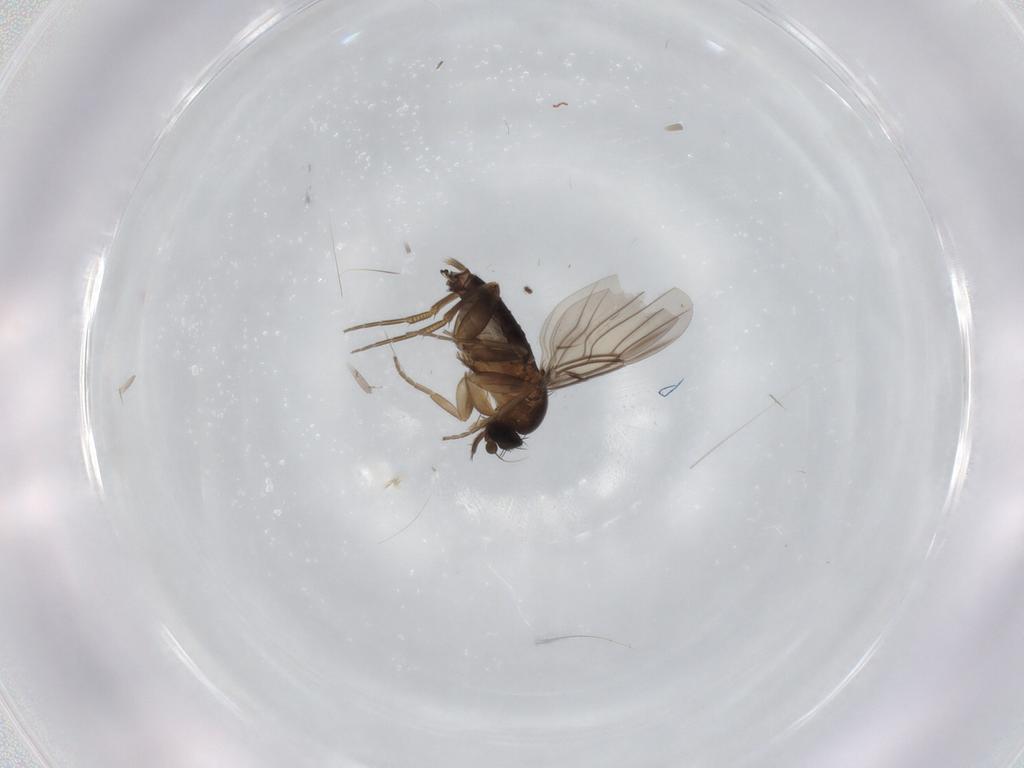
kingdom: Animalia
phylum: Arthropoda
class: Insecta
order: Diptera
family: Phoridae
